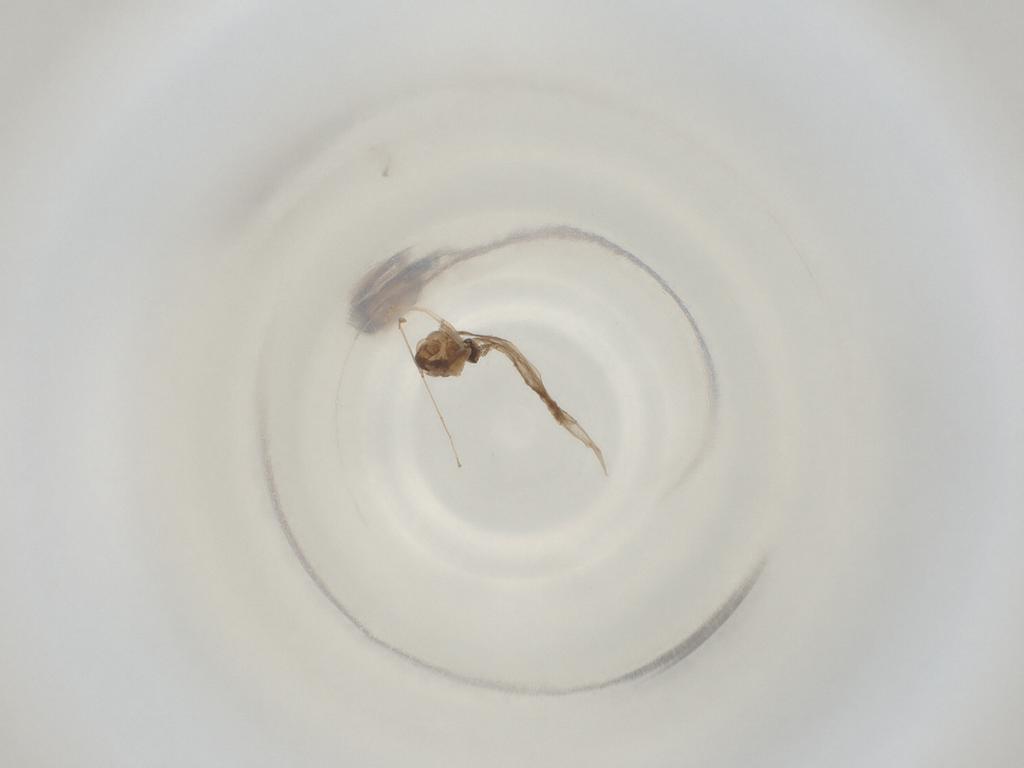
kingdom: Animalia
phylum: Arthropoda
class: Insecta
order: Diptera
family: Cecidomyiidae
